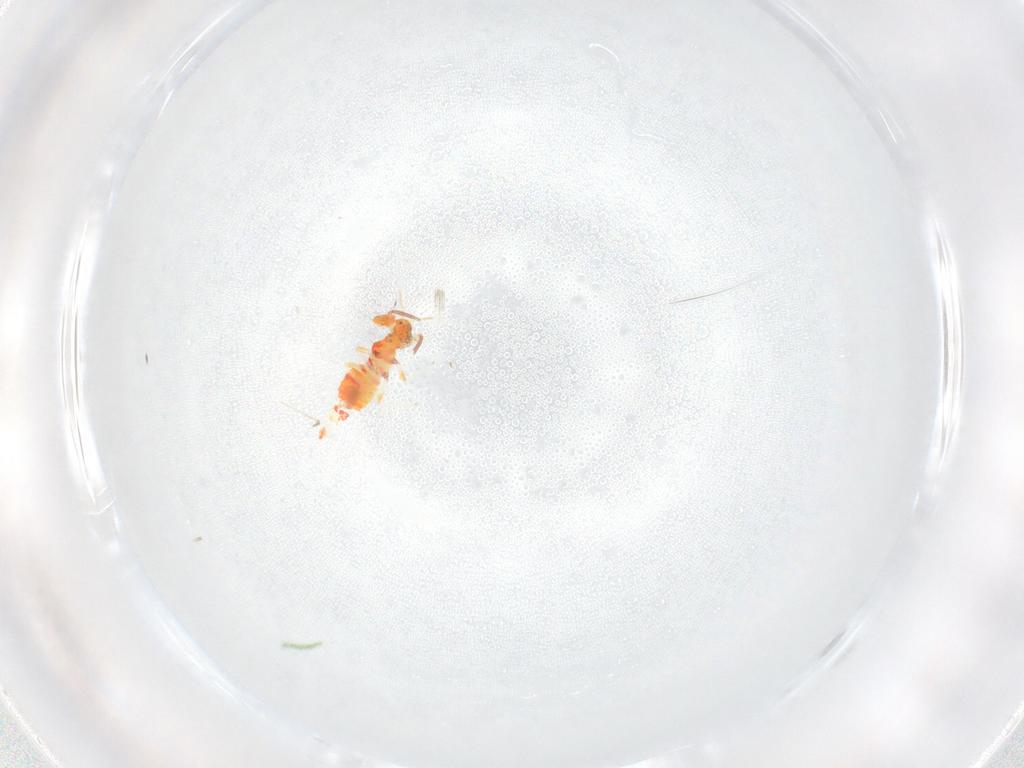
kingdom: Animalia
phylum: Arthropoda
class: Insecta
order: Thysanoptera
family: Aeolothripidae
